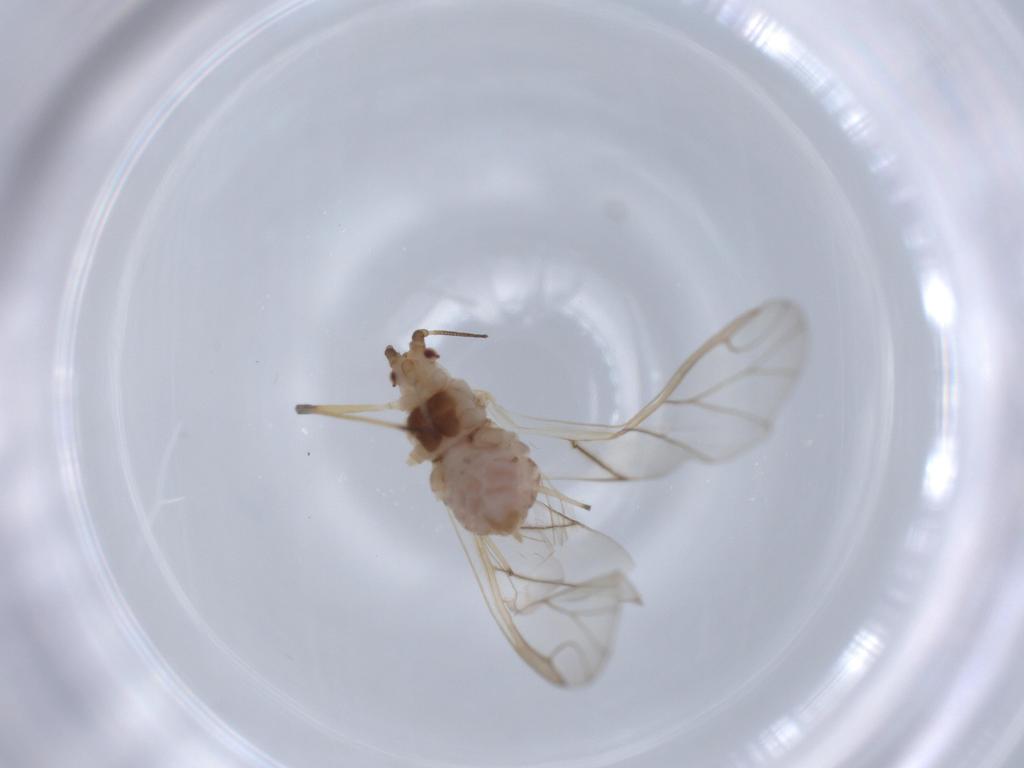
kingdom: Animalia
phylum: Arthropoda
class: Insecta
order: Hemiptera
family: Aphididae
